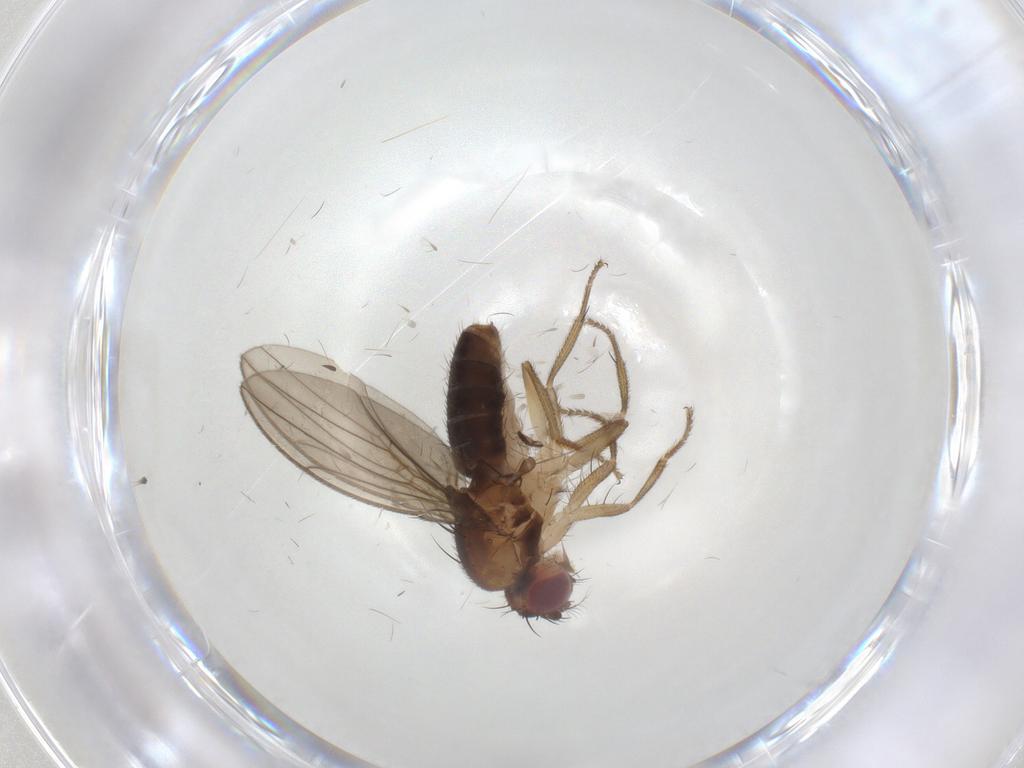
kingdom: Animalia
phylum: Arthropoda
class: Insecta
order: Diptera
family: Drosophilidae
